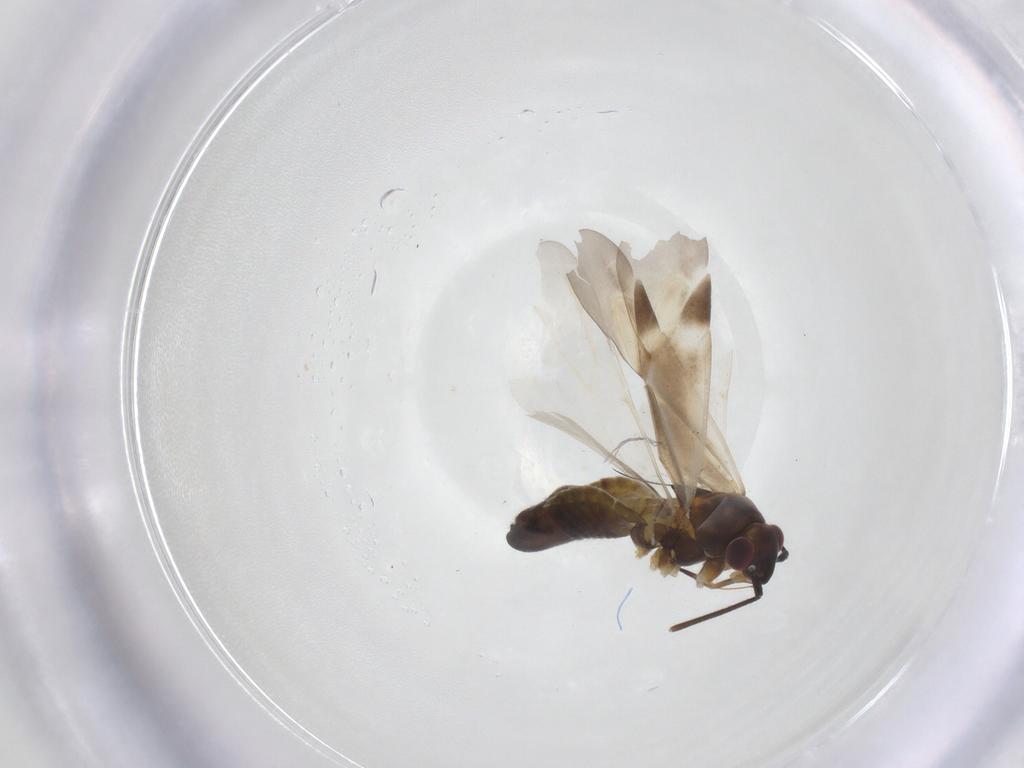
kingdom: Animalia
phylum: Arthropoda
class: Insecta
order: Hemiptera
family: Miridae
